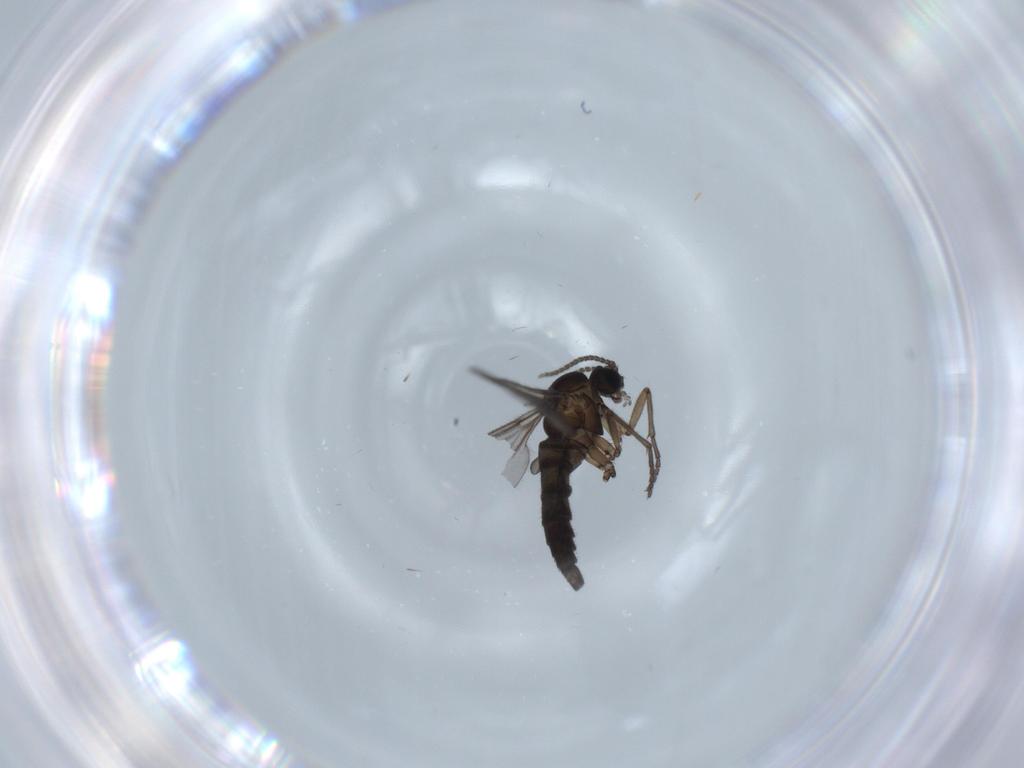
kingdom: Animalia
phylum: Arthropoda
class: Insecta
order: Diptera
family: Sciaridae
